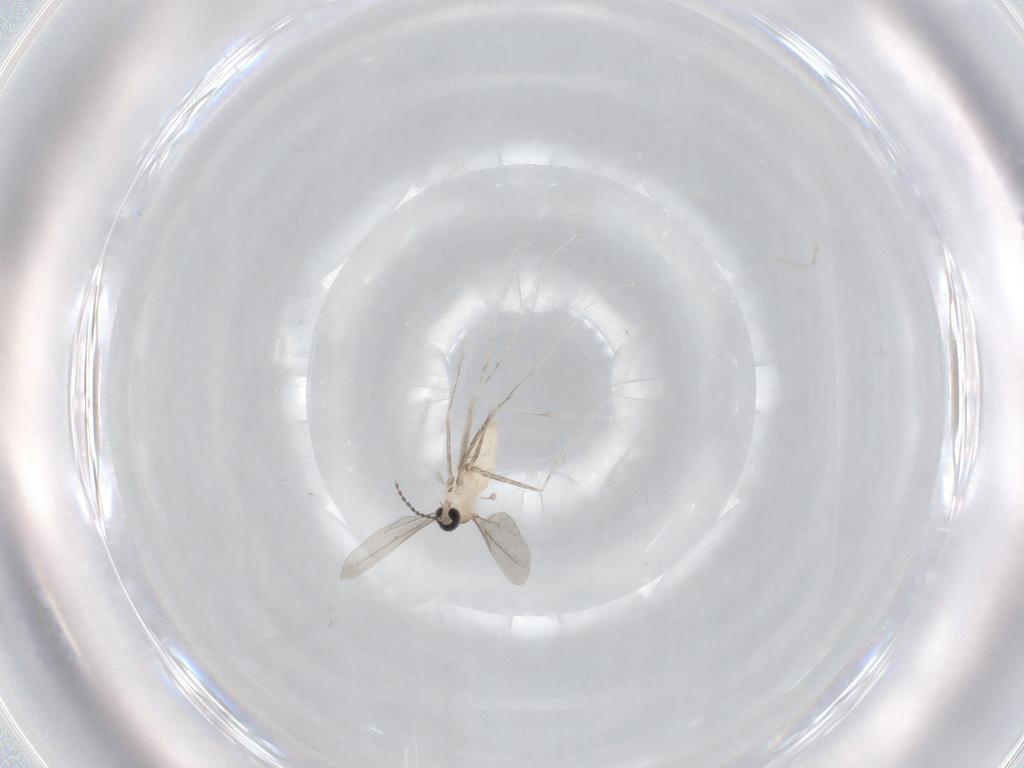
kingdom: Animalia
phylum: Arthropoda
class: Insecta
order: Diptera
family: Cecidomyiidae
